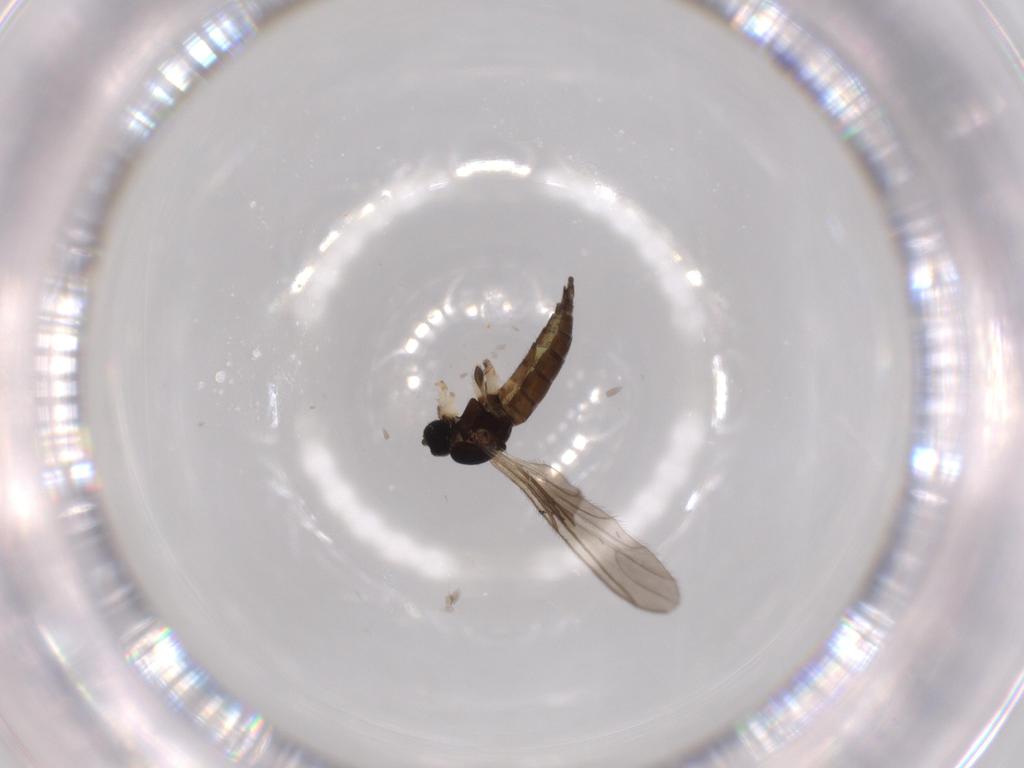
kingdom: Animalia
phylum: Arthropoda
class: Insecta
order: Diptera
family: Sciaridae
